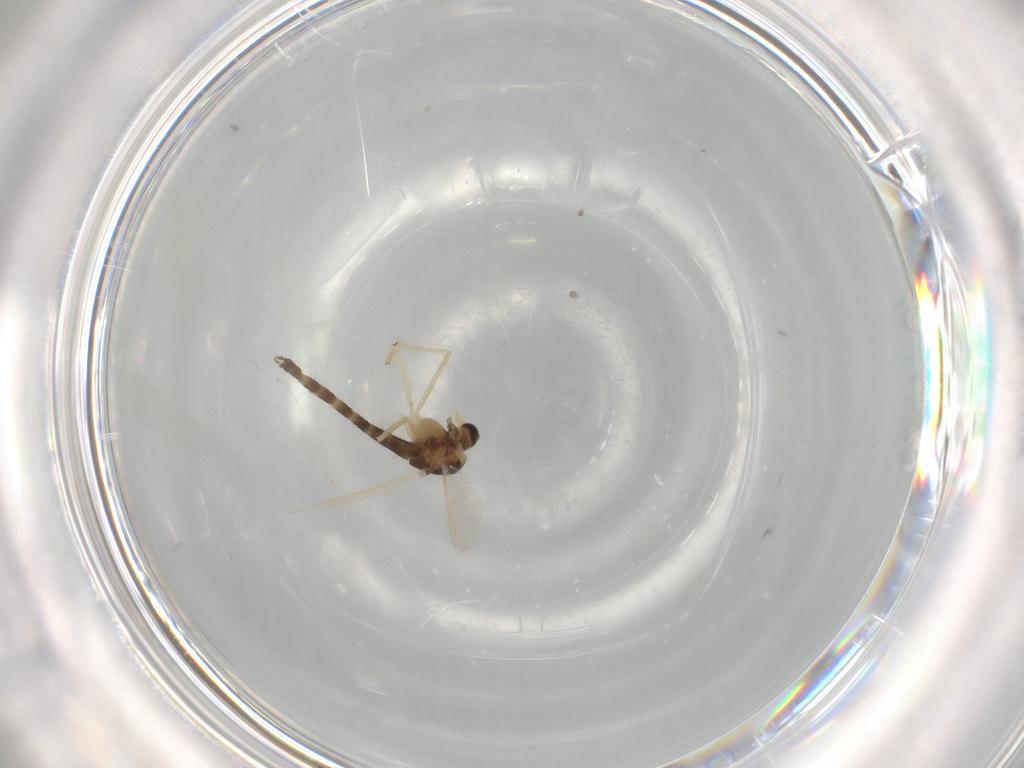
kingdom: Animalia
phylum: Arthropoda
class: Insecta
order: Diptera
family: Chironomidae
